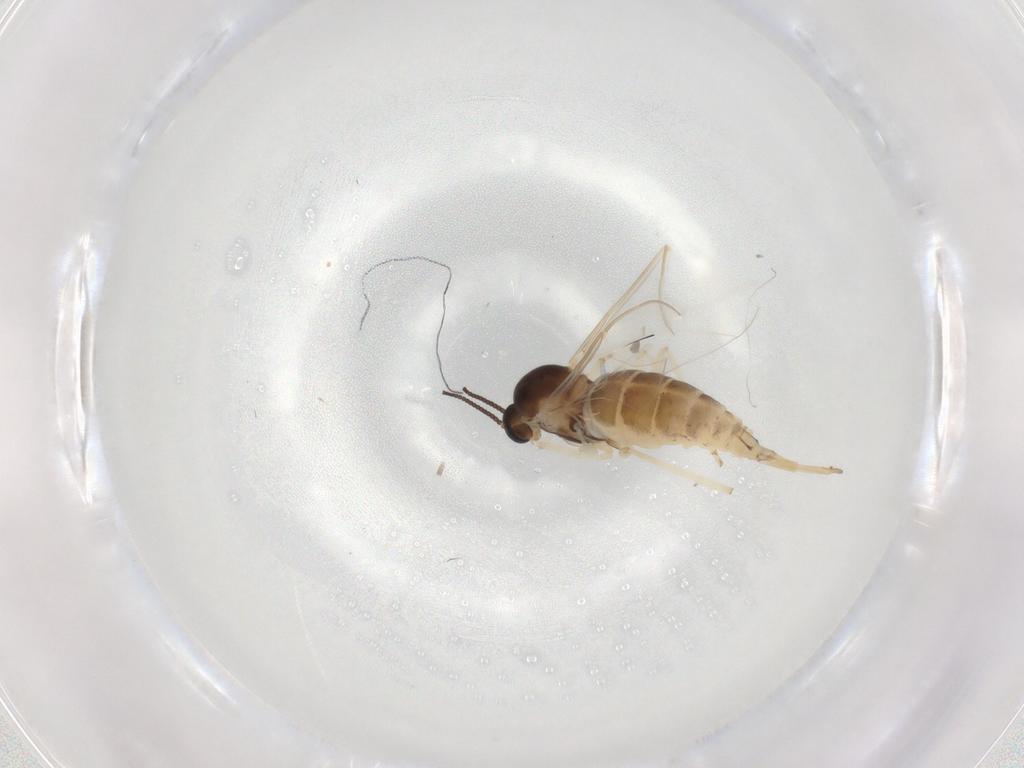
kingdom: Animalia
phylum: Arthropoda
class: Insecta
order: Diptera
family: Cecidomyiidae
